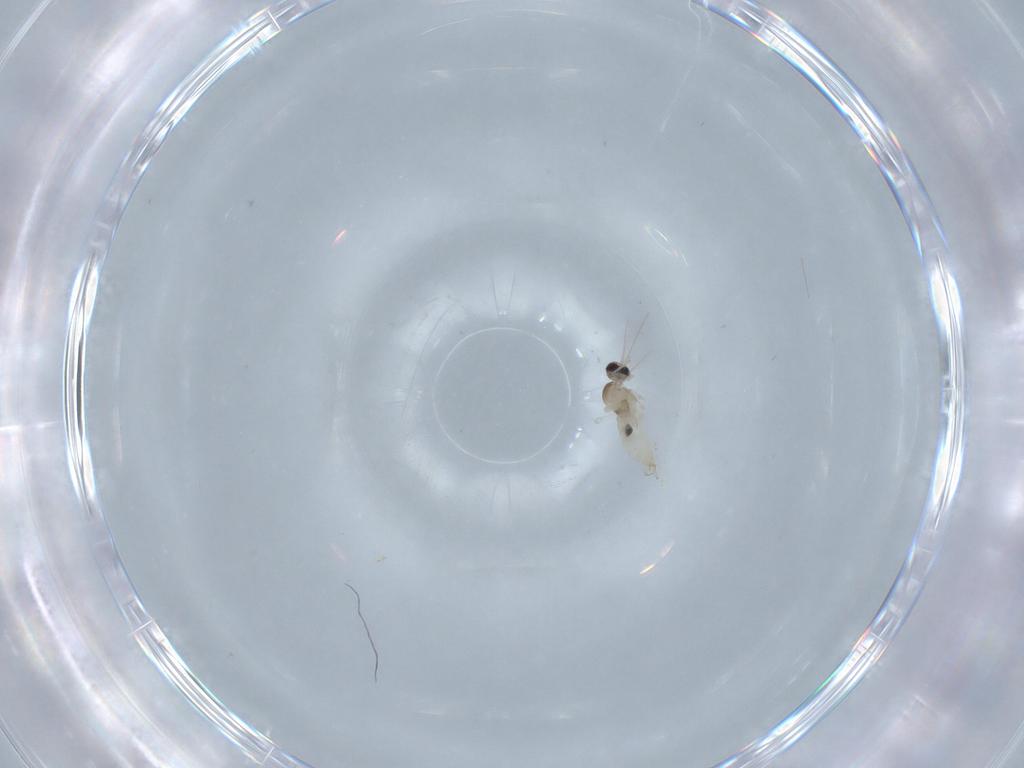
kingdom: Animalia
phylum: Arthropoda
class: Insecta
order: Diptera
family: Cecidomyiidae
